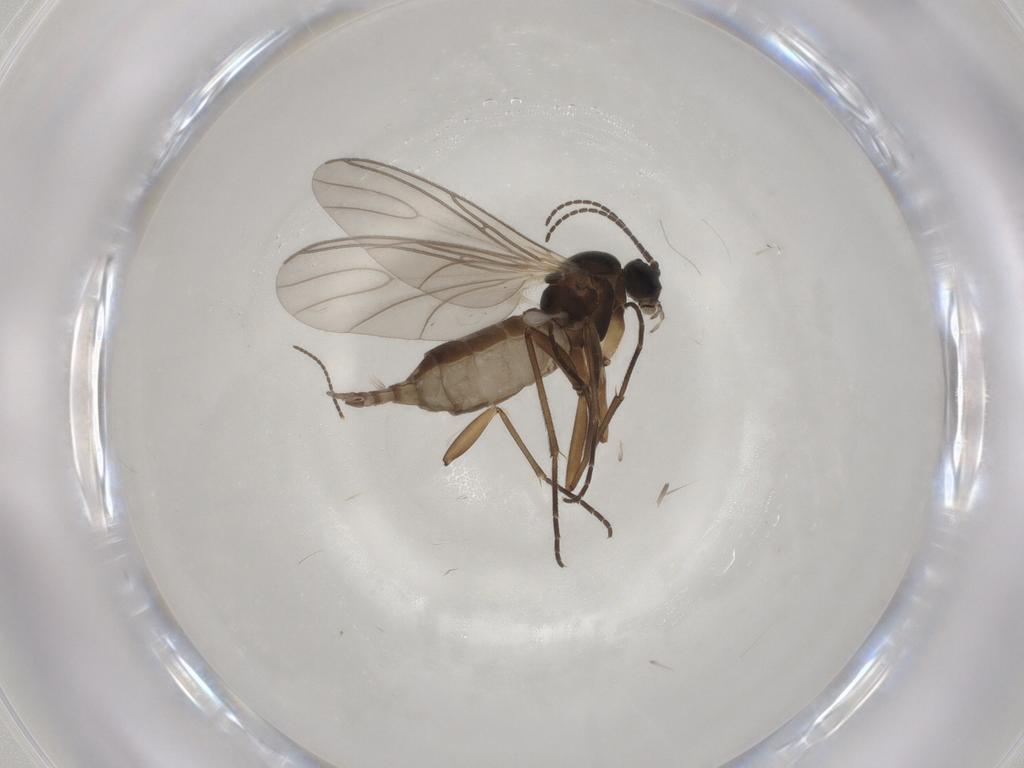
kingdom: Animalia
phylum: Arthropoda
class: Insecta
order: Diptera
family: Sciaridae
